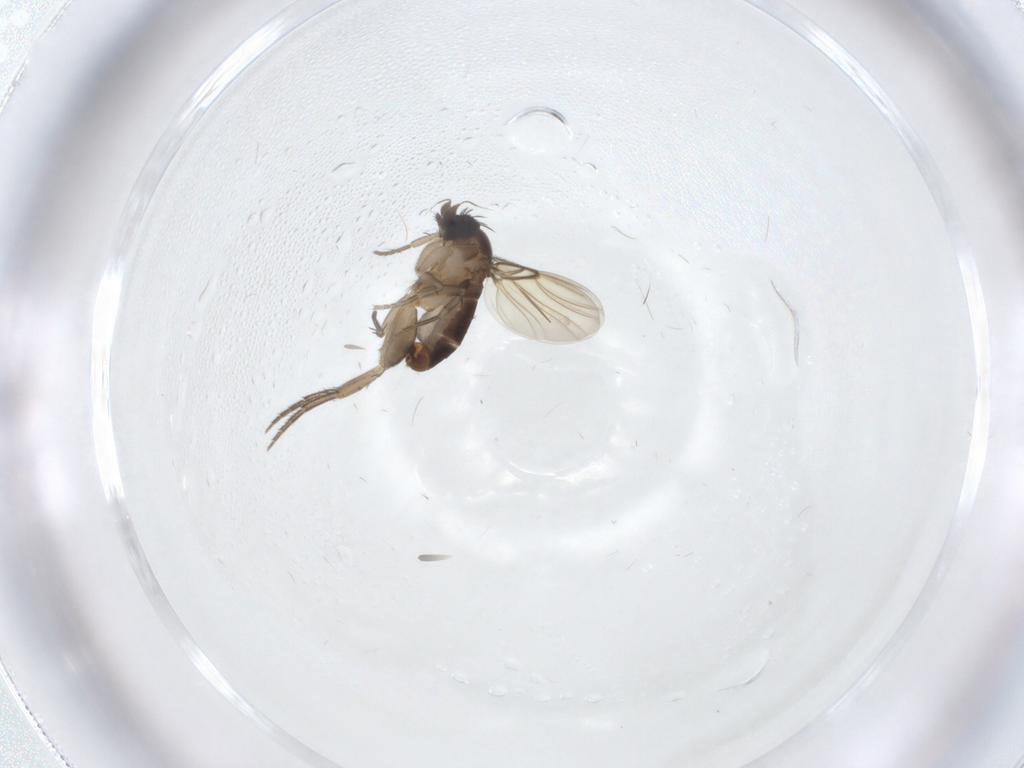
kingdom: Animalia
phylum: Arthropoda
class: Insecta
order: Diptera
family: Phoridae
